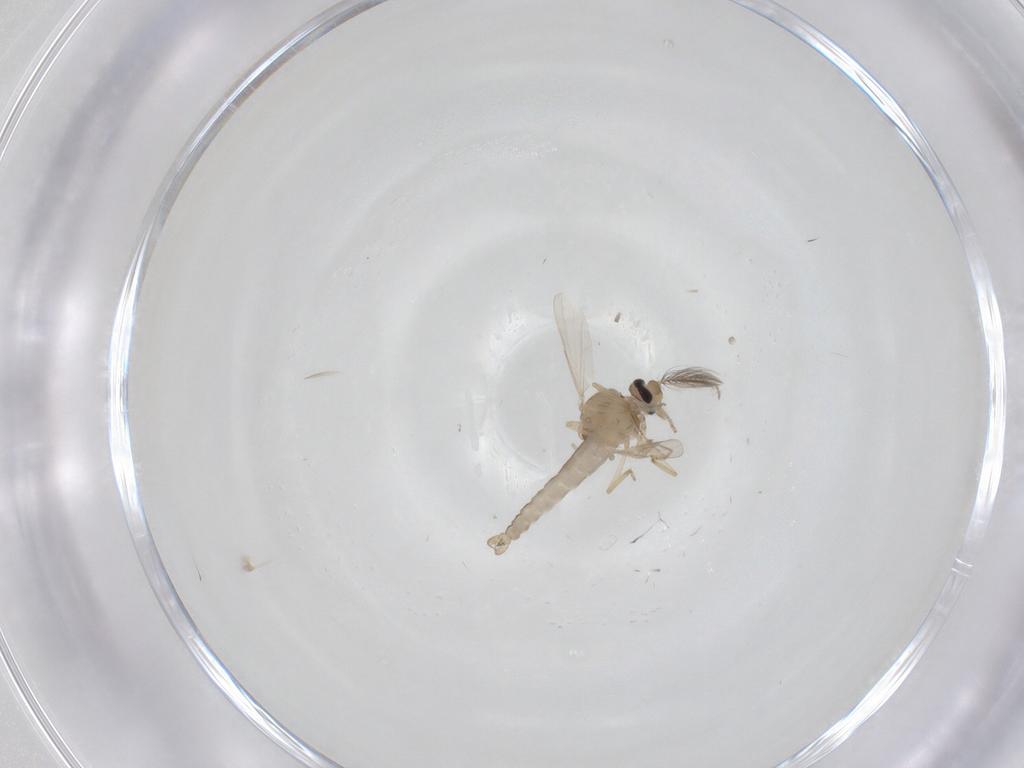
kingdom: Animalia
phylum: Arthropoda
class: Insecta
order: Diptera
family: Ceratopogonidae
